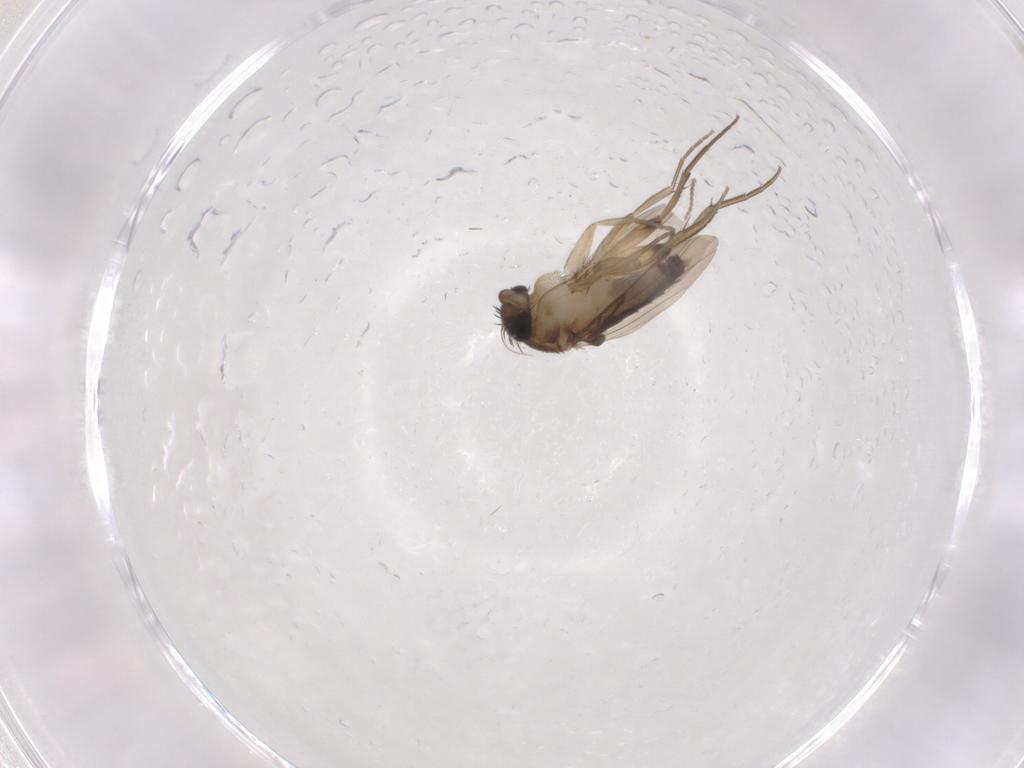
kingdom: Animalia
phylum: Arthropoda
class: Insecta
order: Diptera
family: Phoridae
